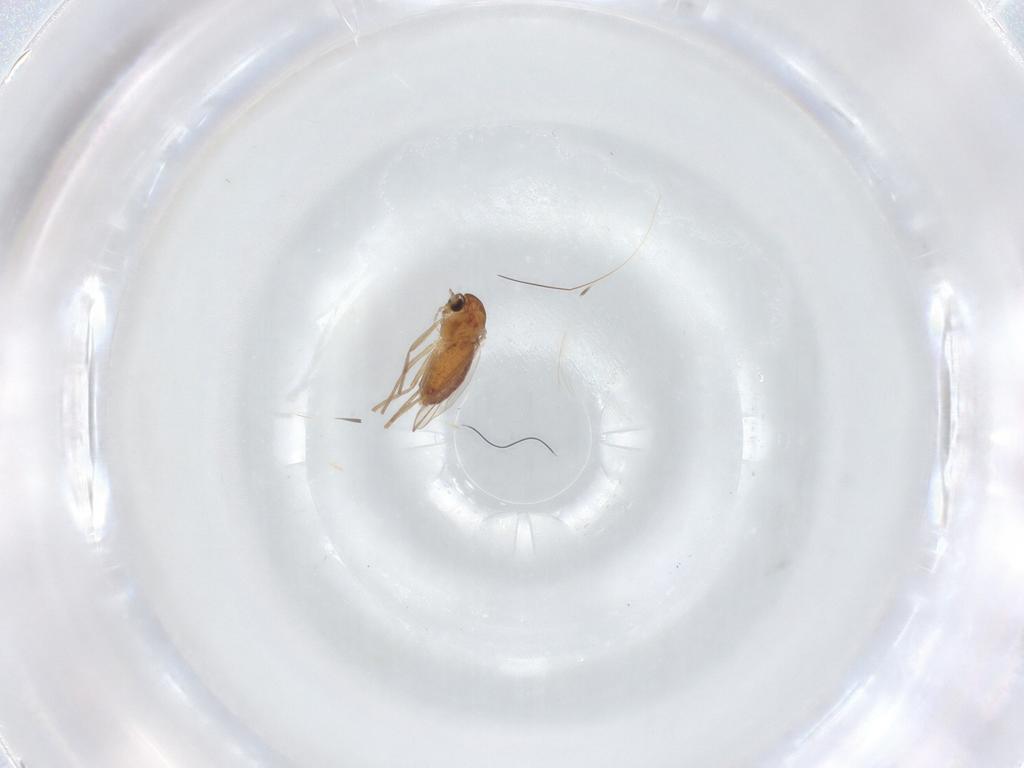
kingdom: Animalia
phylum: Arthropoda
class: Insecta
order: Diptera
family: Chironomidae
